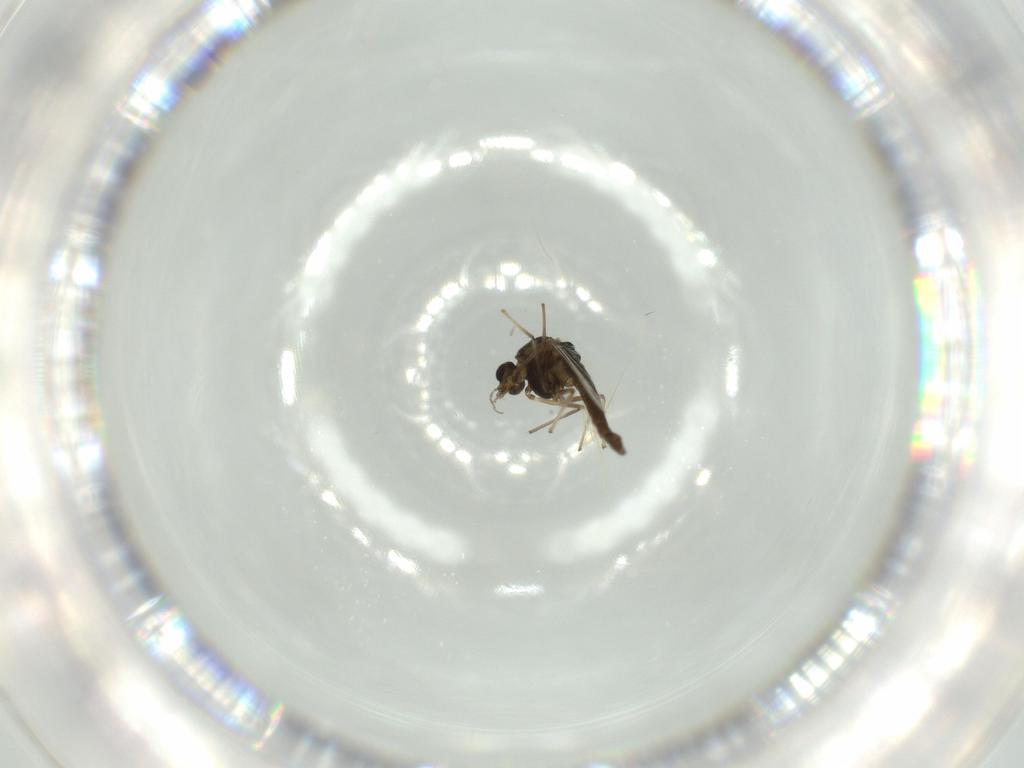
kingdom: Animalia
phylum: Arthropoda
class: Insecta
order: Diptera
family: Chironomidae
